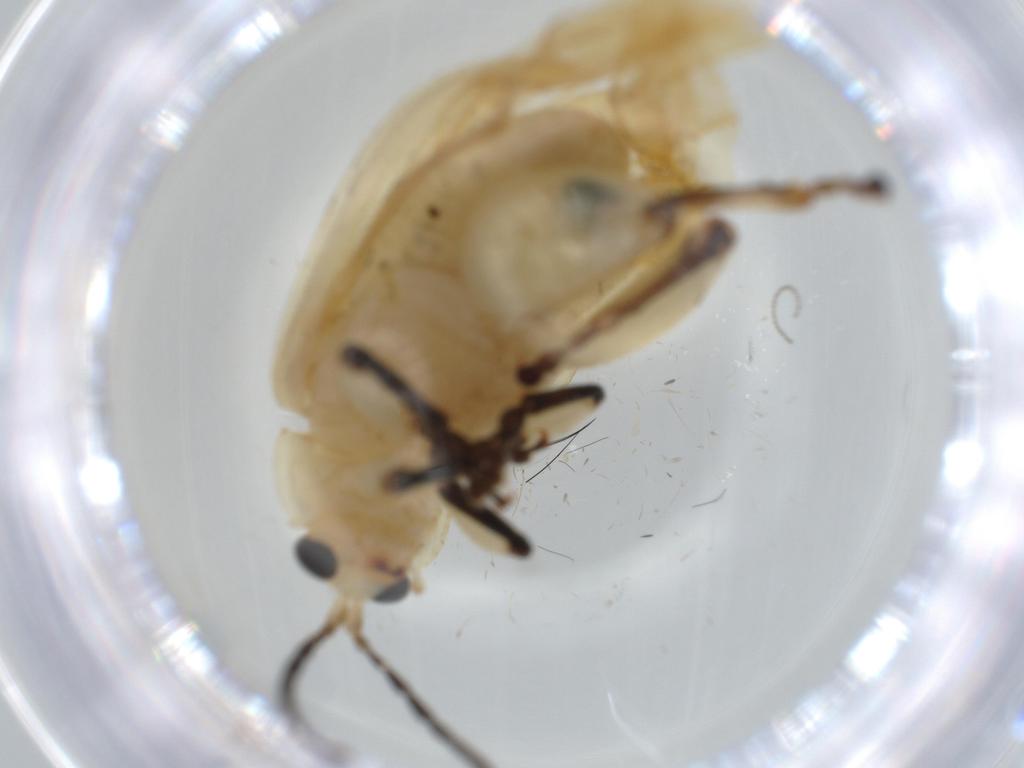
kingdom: Animalia
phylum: Arthropoda
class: Insecta
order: Coleoptera
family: Chrysomelidae
